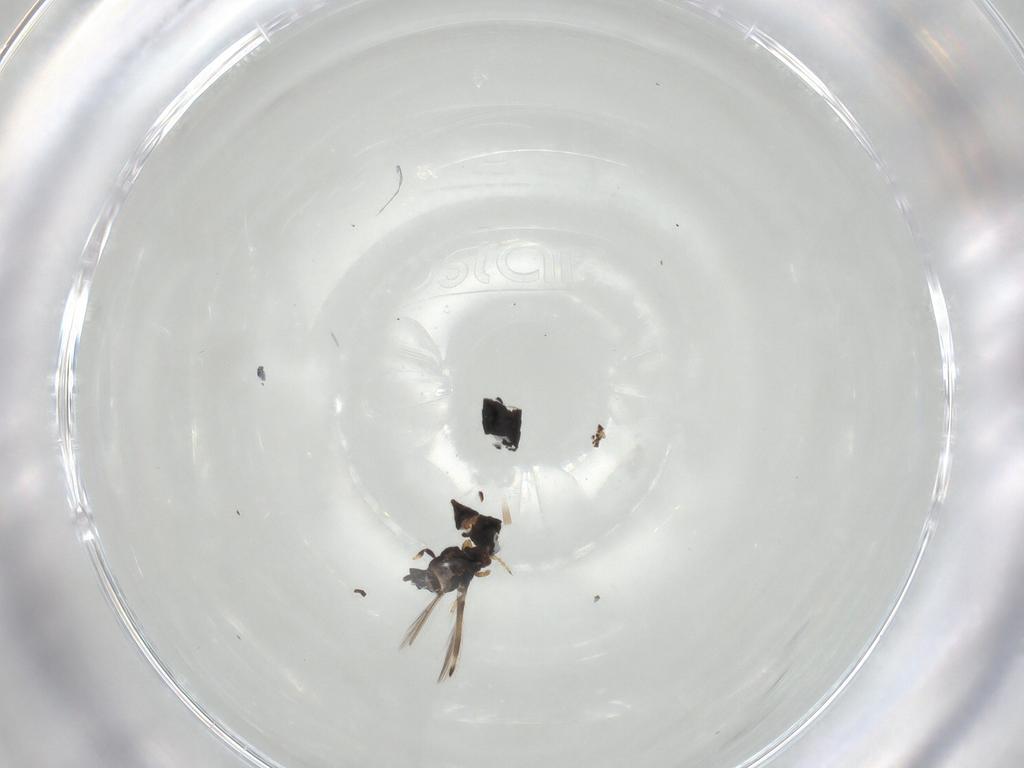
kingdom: Animalia
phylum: Arthropoda
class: Insecta
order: Thysanoptera
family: Thripidae
